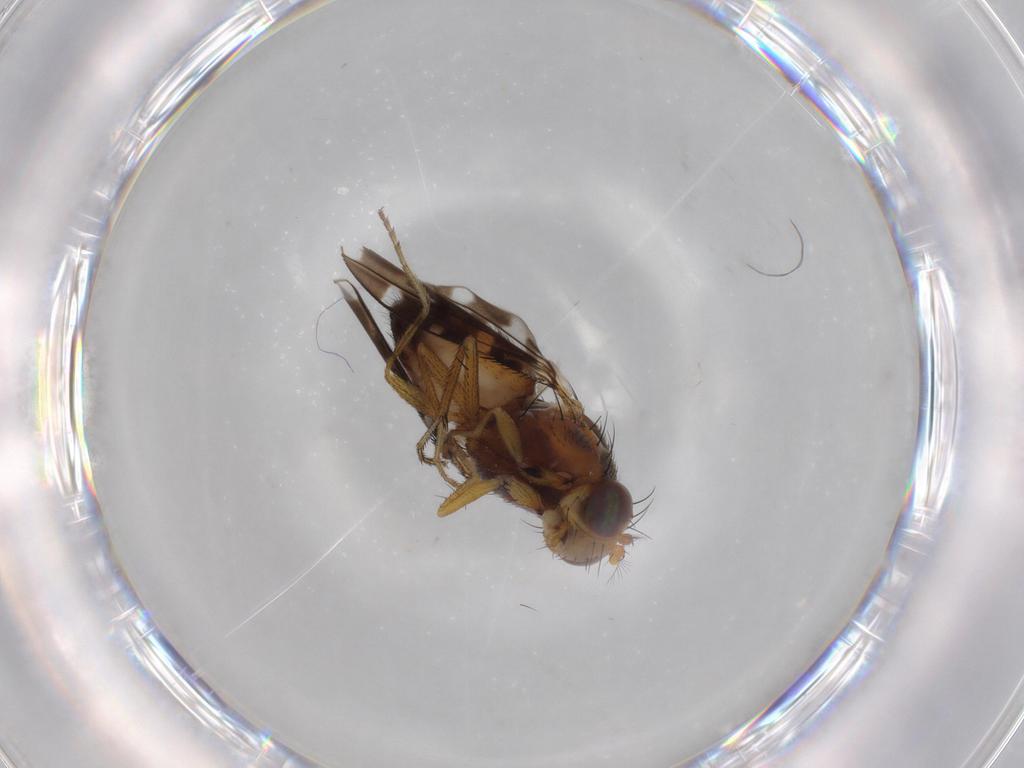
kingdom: Animalia
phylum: Arthropoda
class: Insecta
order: Diptera
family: Ephydridae
